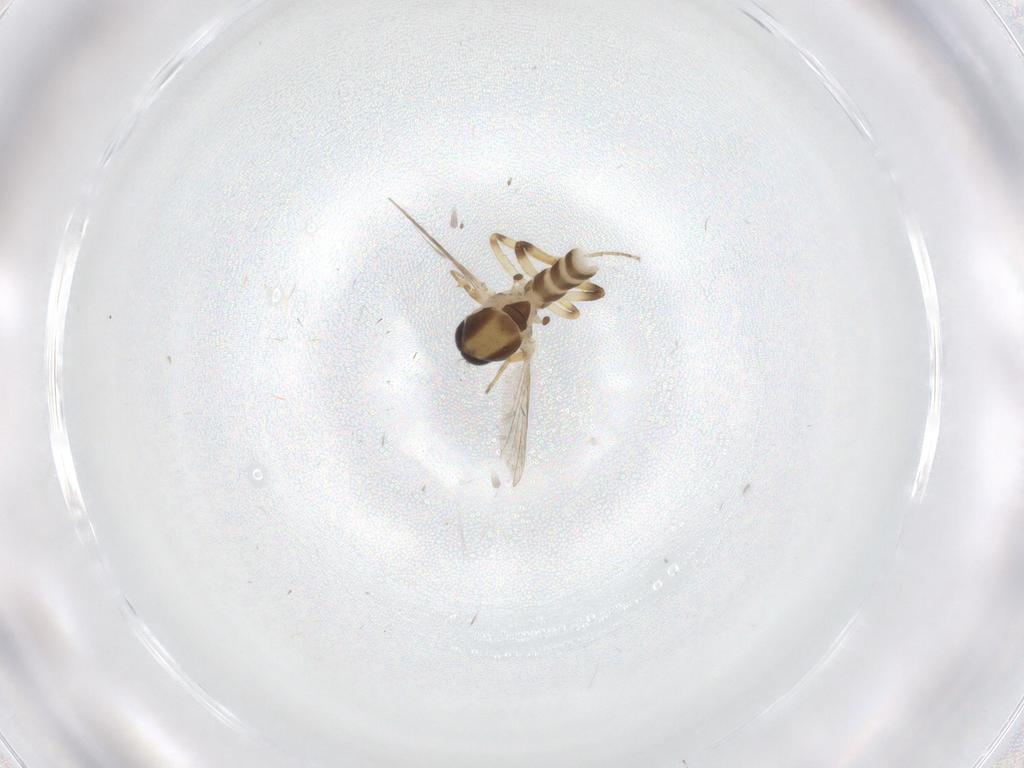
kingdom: Animalia
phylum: Arthropoda
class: Insecta
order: Diptera
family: Ceratopogonidae
